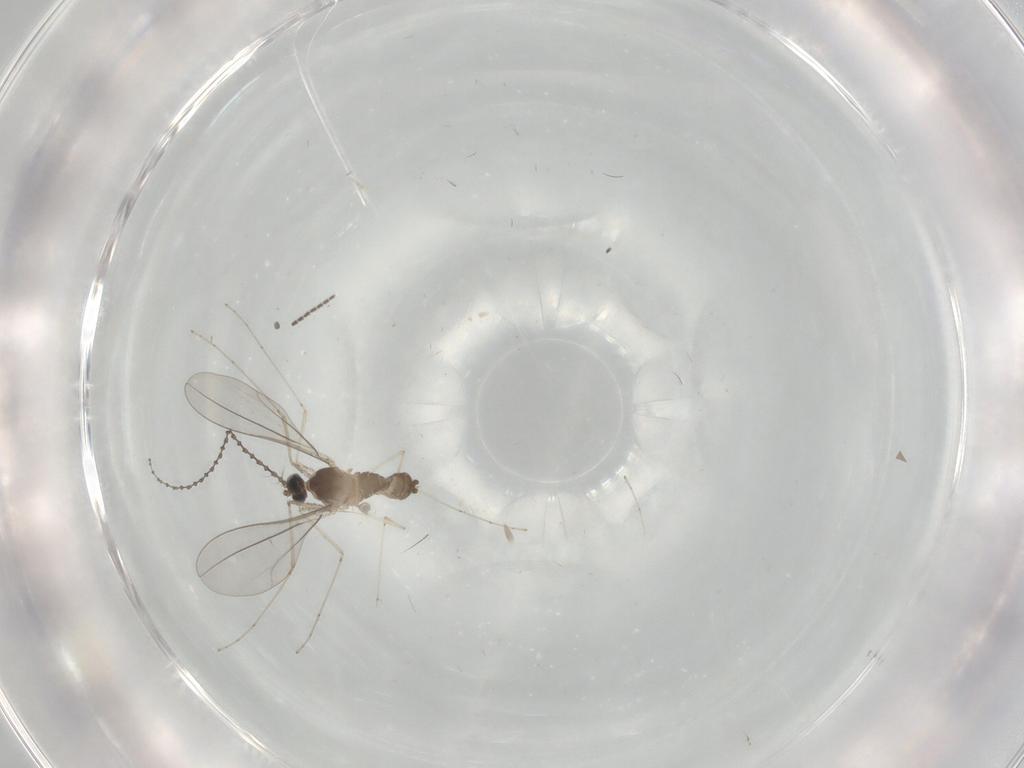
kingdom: Animalia
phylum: Arthropoda
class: Insecta
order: Diptera
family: Cecidomyiidae
